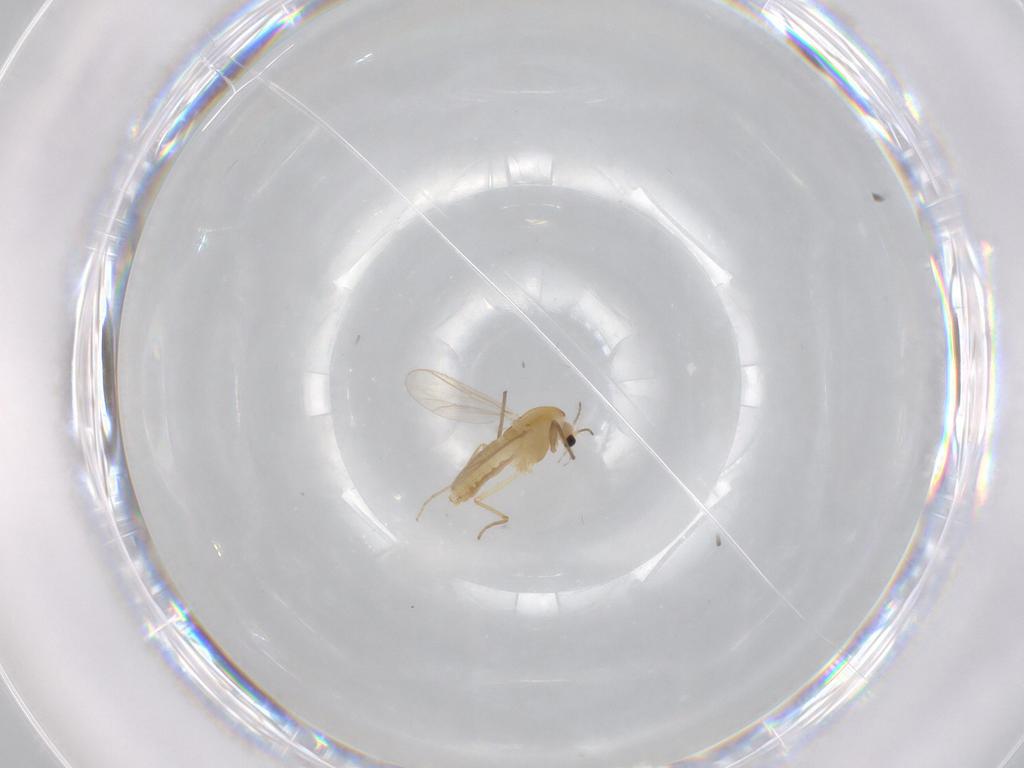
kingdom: Animalia
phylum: Arthropoda
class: Insecta
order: Diptera
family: Chironomidae
